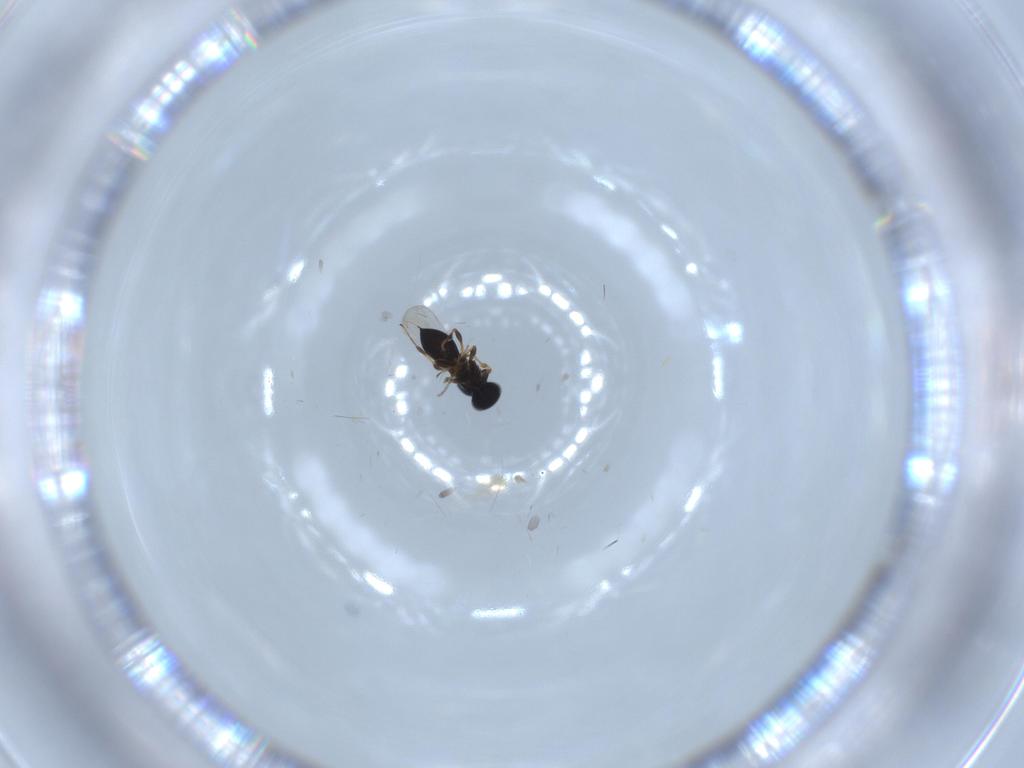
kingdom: Animalia
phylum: Arthropoda
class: Insecta
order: Hymenoptera
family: Platygastridae
